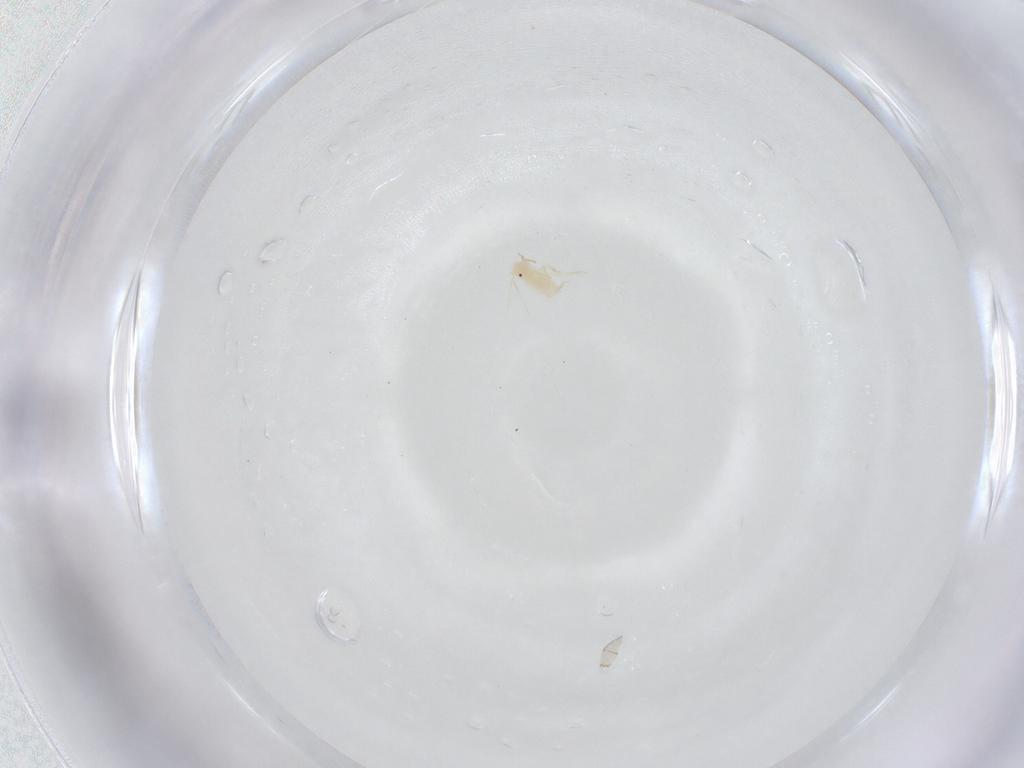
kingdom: Animalia
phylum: Arthropoda
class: Insecta
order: Hemiptera
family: Aphididae
